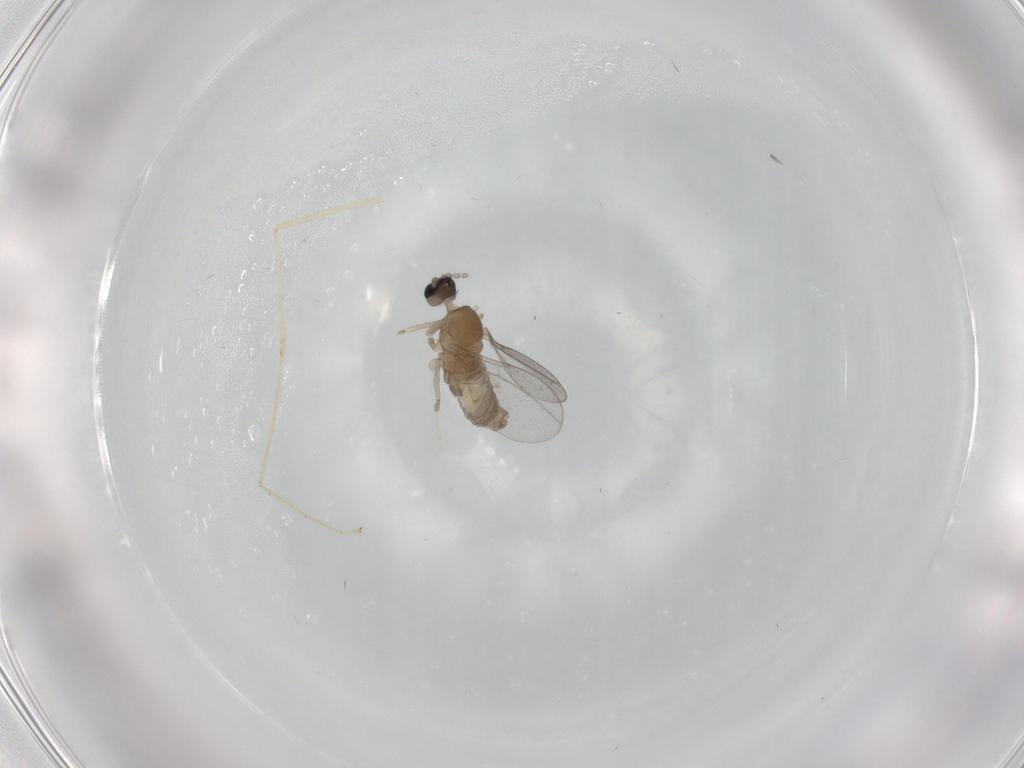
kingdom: Animalia
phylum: Arthropoda
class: Insecta
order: Diptera
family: Cecidomyiidae
